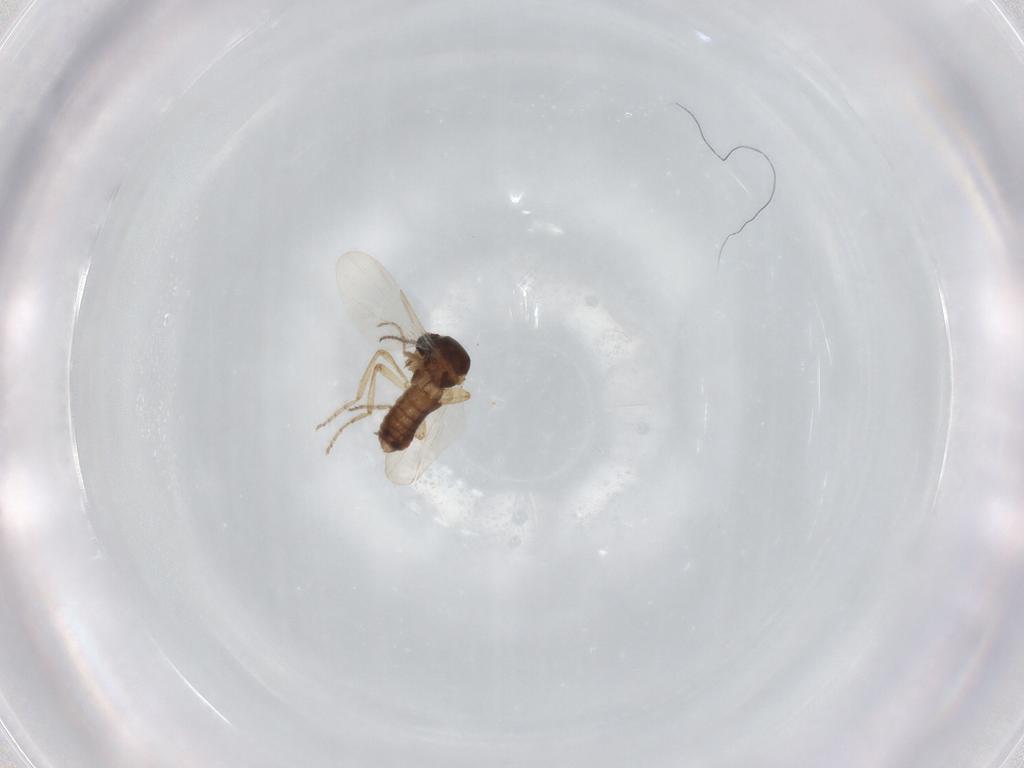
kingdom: Animalia
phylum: Arthropoda
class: Insecta
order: Diptera
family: Ceratopogonidae
